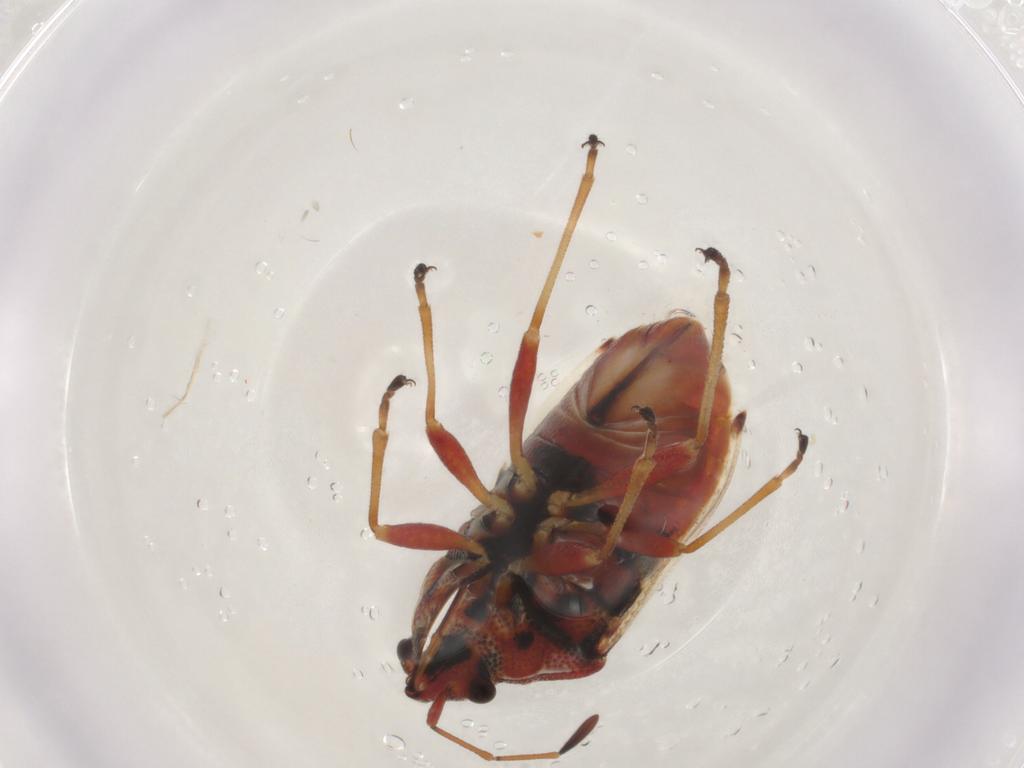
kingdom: Animalia
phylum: Arthropoda
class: Insecta
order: Hemiptera
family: Lygaeidae
